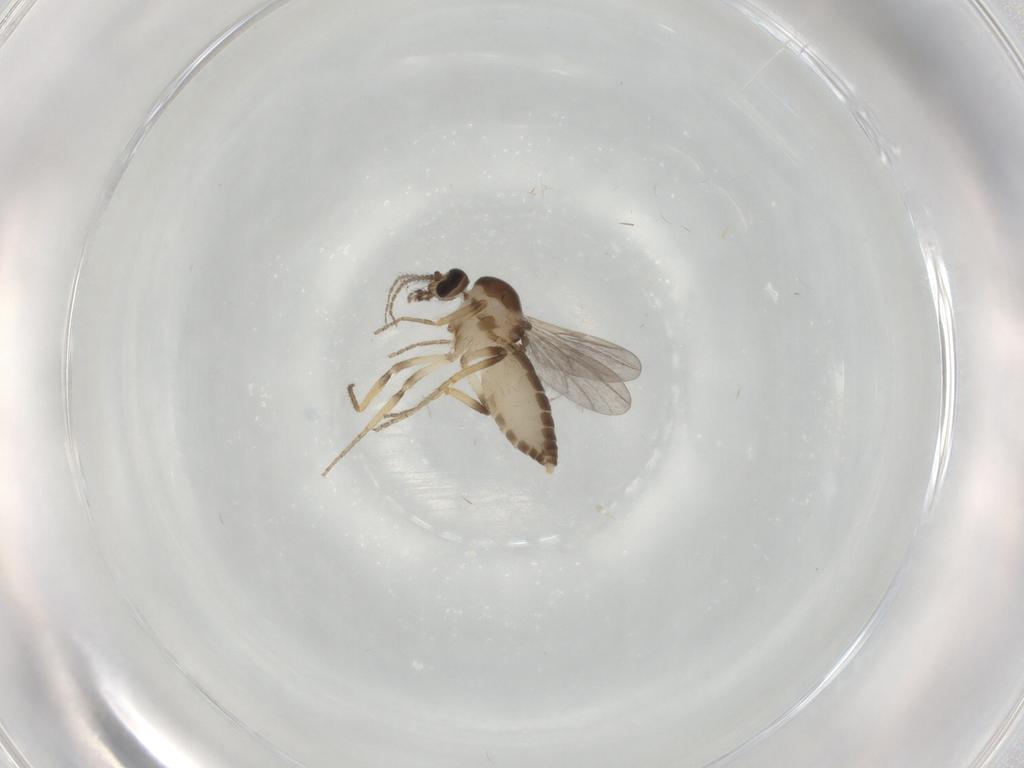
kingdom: Animalia
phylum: Arthropoda
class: Insecta
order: Diptera
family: Ceratopogonidae
